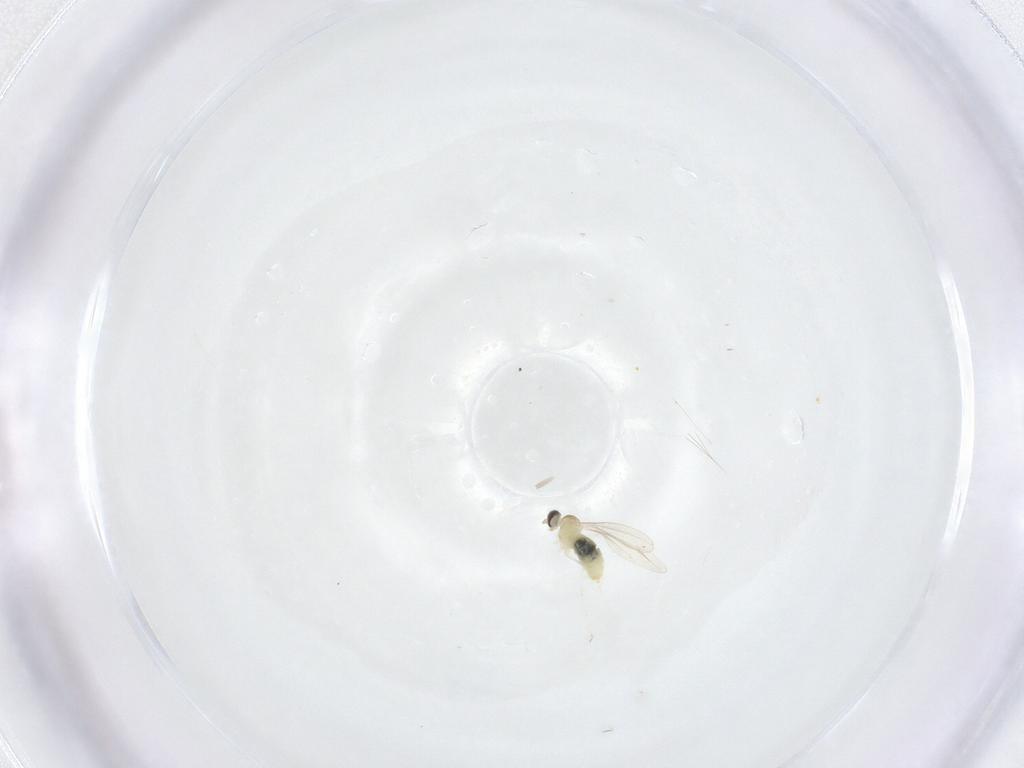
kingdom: Animalia
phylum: Arthropoda
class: Insecta
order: Diptera
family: Cecidomyiidae
